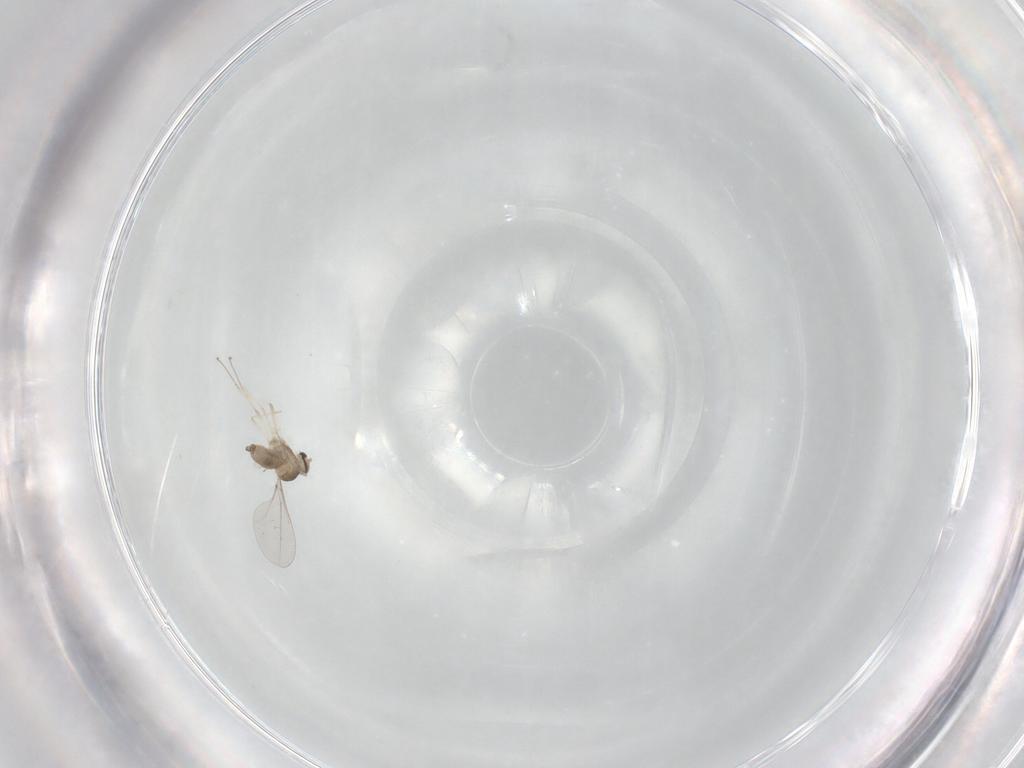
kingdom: Animalia
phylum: Arthropoda
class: Insecta
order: Diptera
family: Cecidomyiidae
